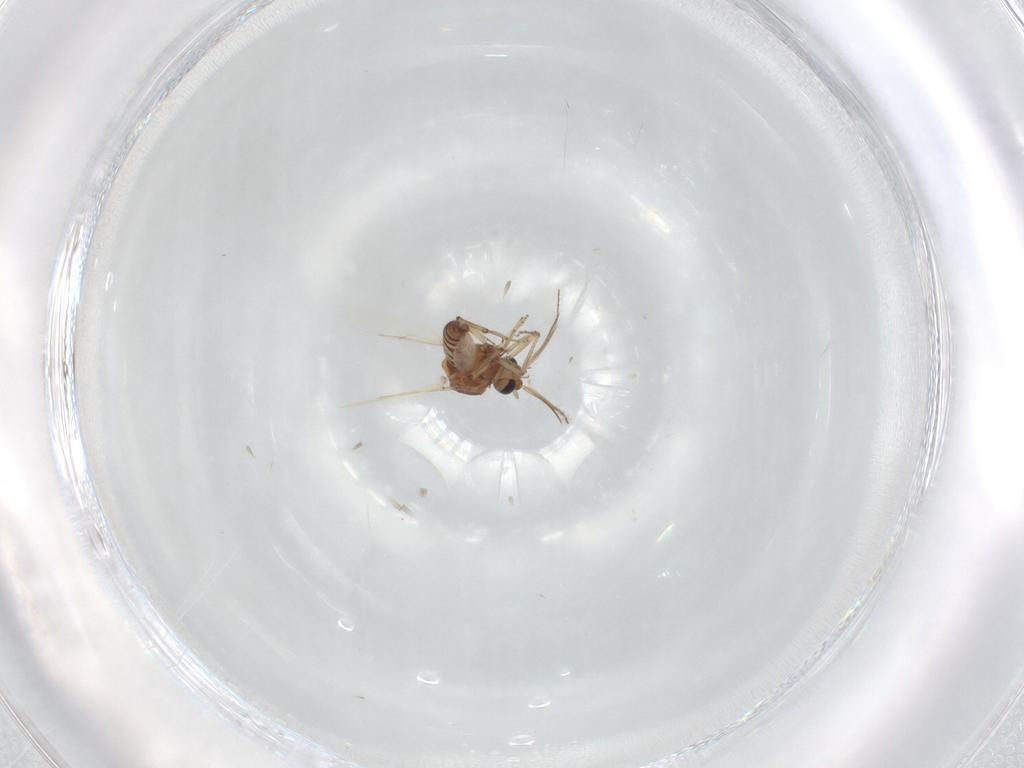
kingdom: Animalia
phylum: Arthropoda
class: Insecta
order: Diptera
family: Ceratopogonidae
